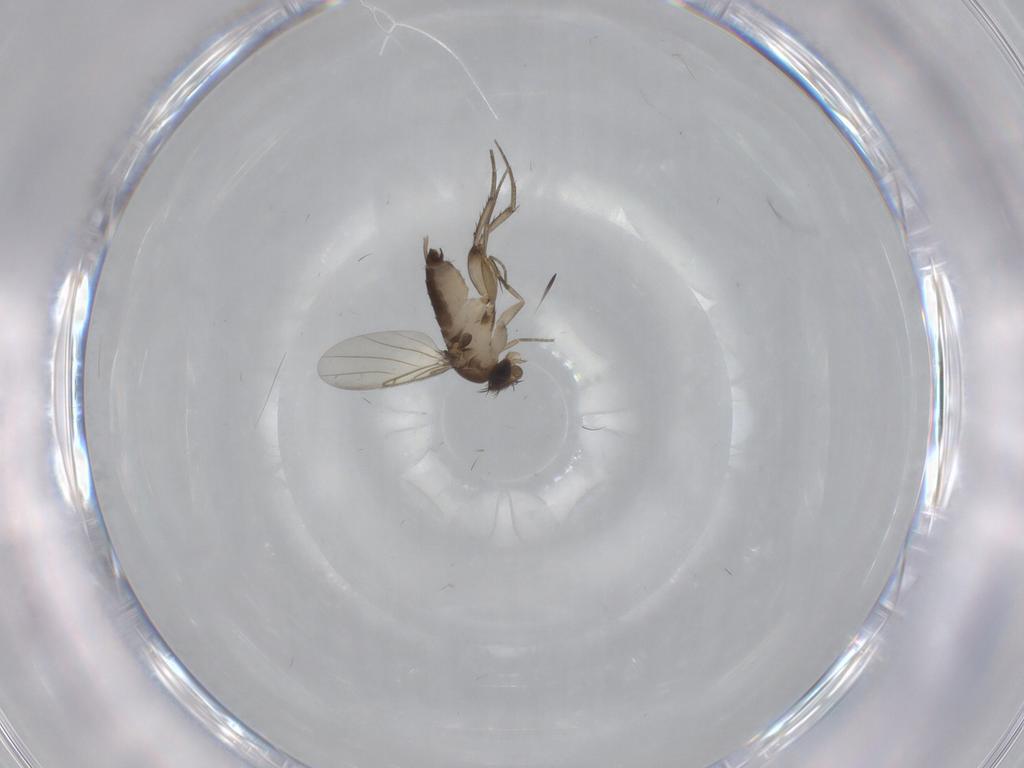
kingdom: Animalia
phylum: Arthropoda
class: Insecta
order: Diptera
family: Phoridae
